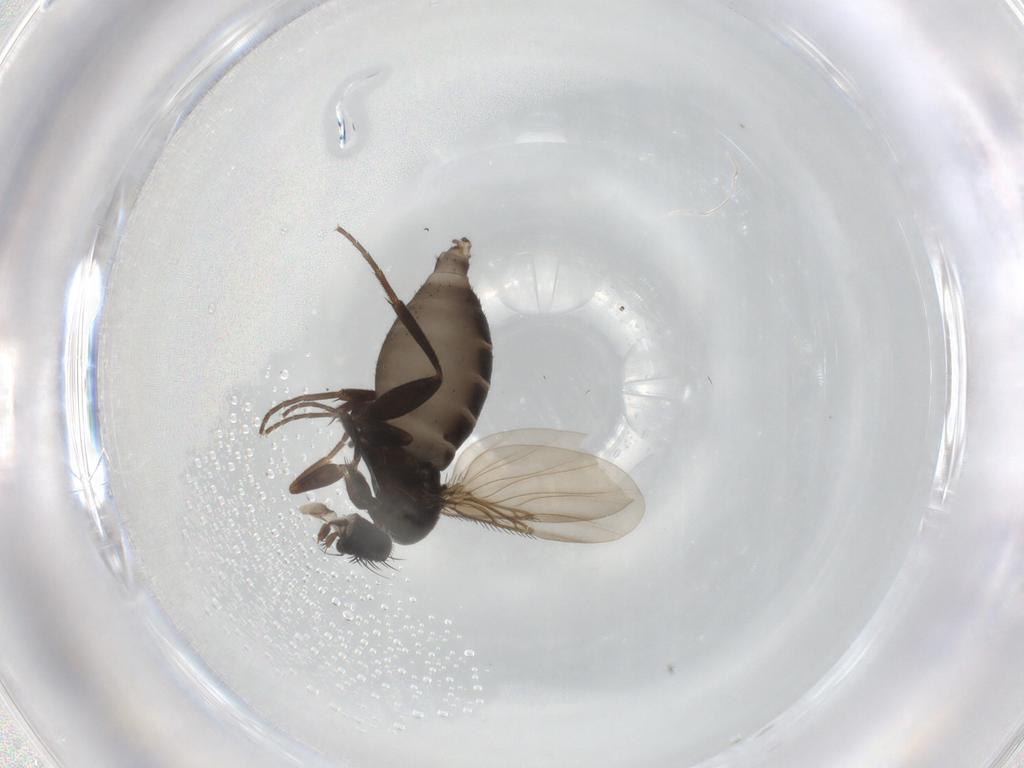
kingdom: Animalia
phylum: Arthropoda
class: Insecta
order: Diptera
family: Phoridae
